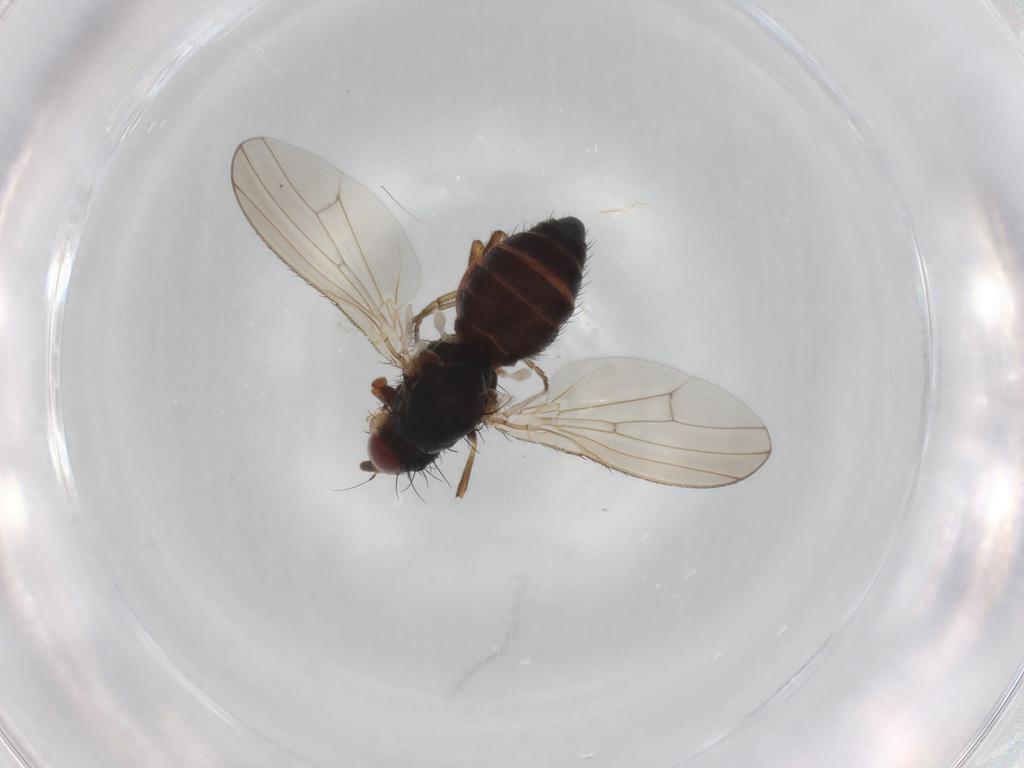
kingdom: Animalia
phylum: Arthropoda
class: Insecta
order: Diptera
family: Heleomyzidae
